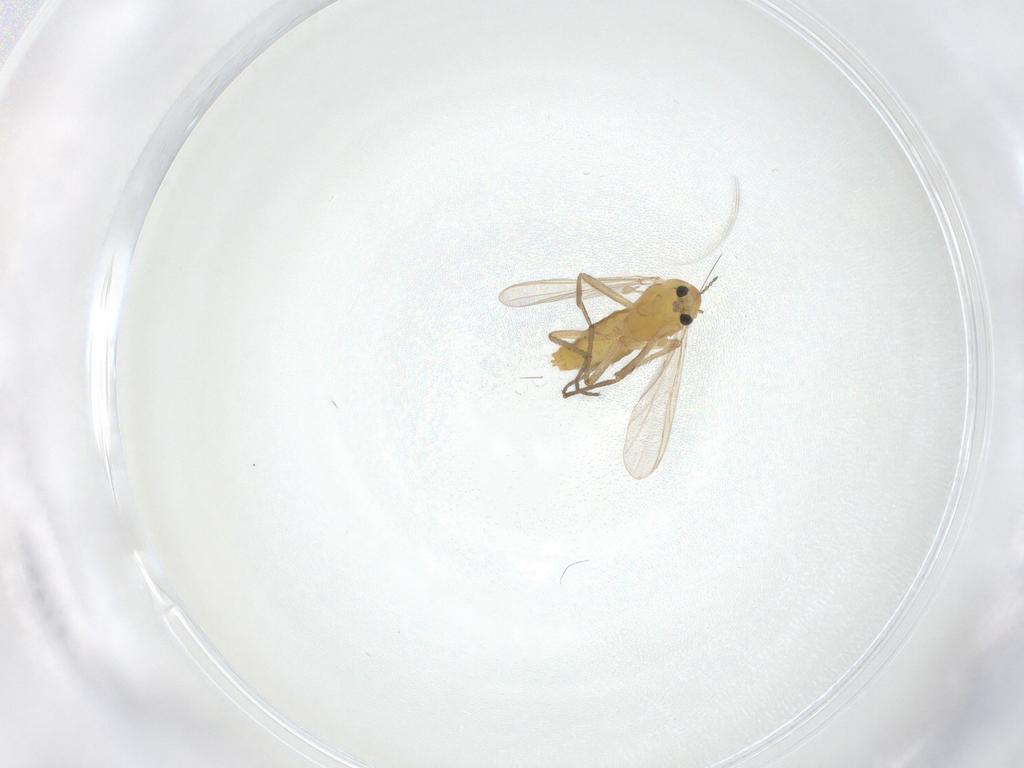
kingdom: Animalia
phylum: Arthropoda
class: Insecta
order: Diptera
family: Chironomidae
